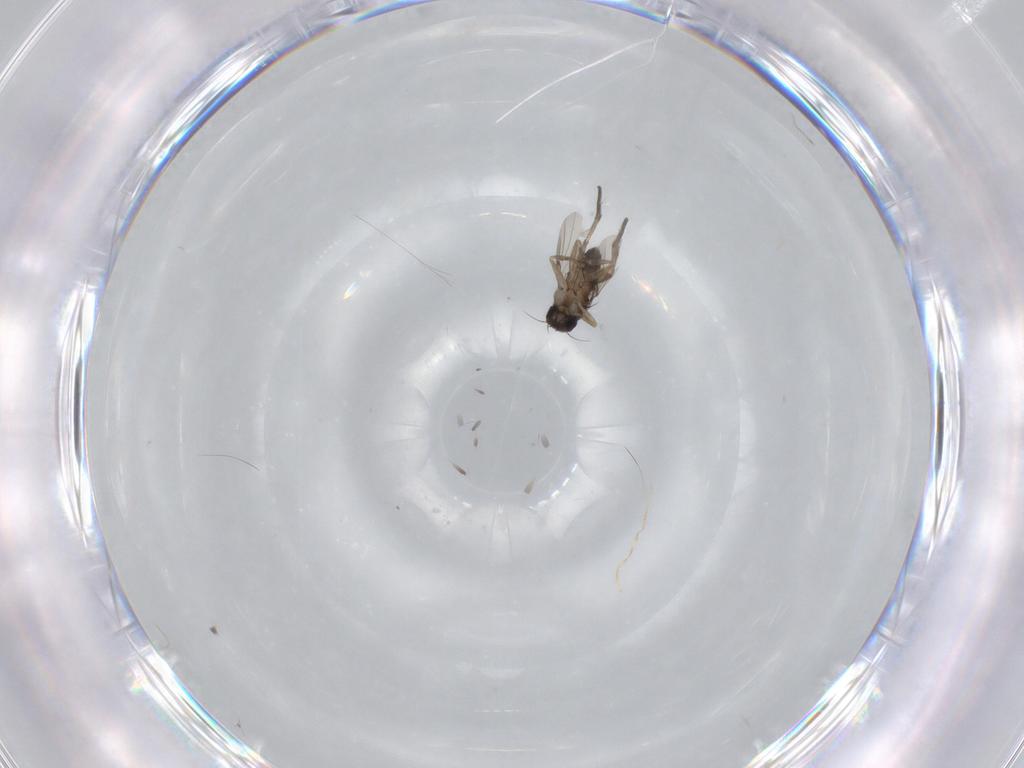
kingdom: Animalia
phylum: Arthropoda
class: Insecta
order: Diptera
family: Phoridae
